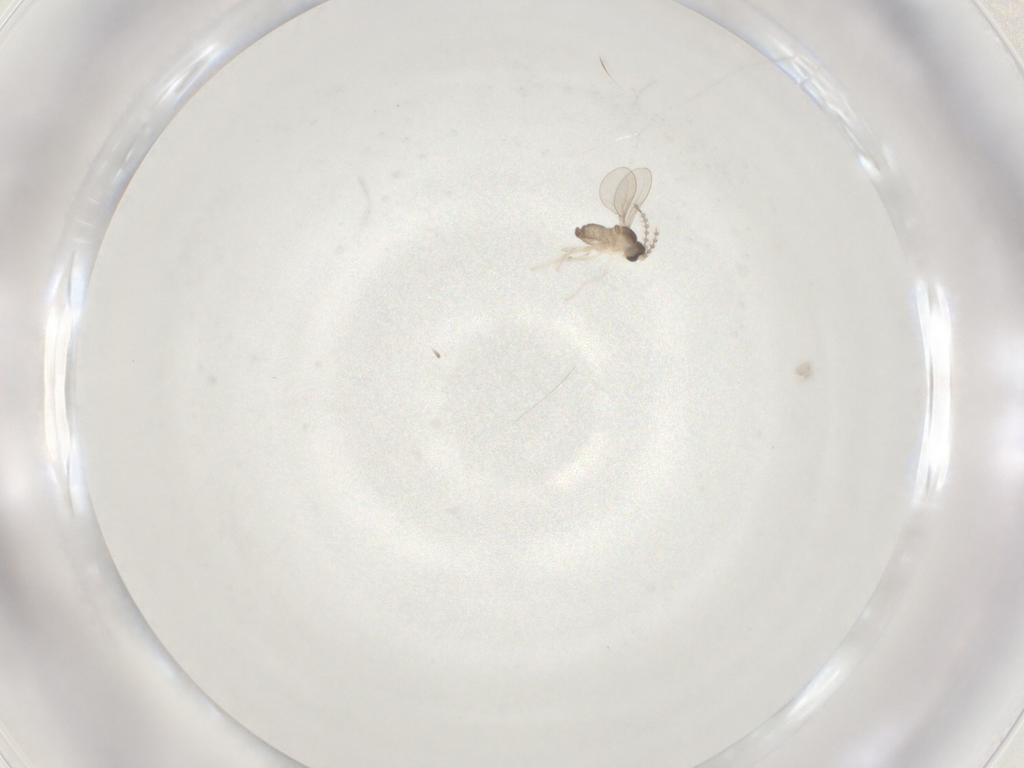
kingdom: Animalia
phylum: Arthropoda
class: Insecta
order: Diptera
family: Cecidomyiidae
